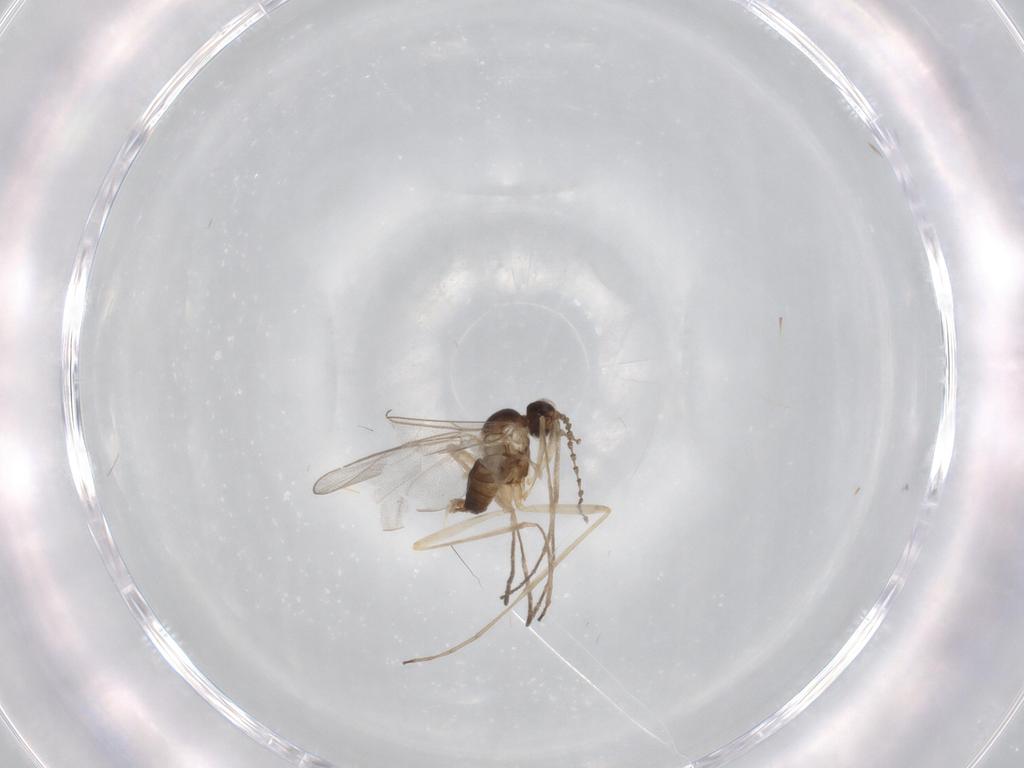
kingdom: Animalia
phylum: Arthropoda
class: Insecta
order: Diptera
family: Cecidomyiidae
